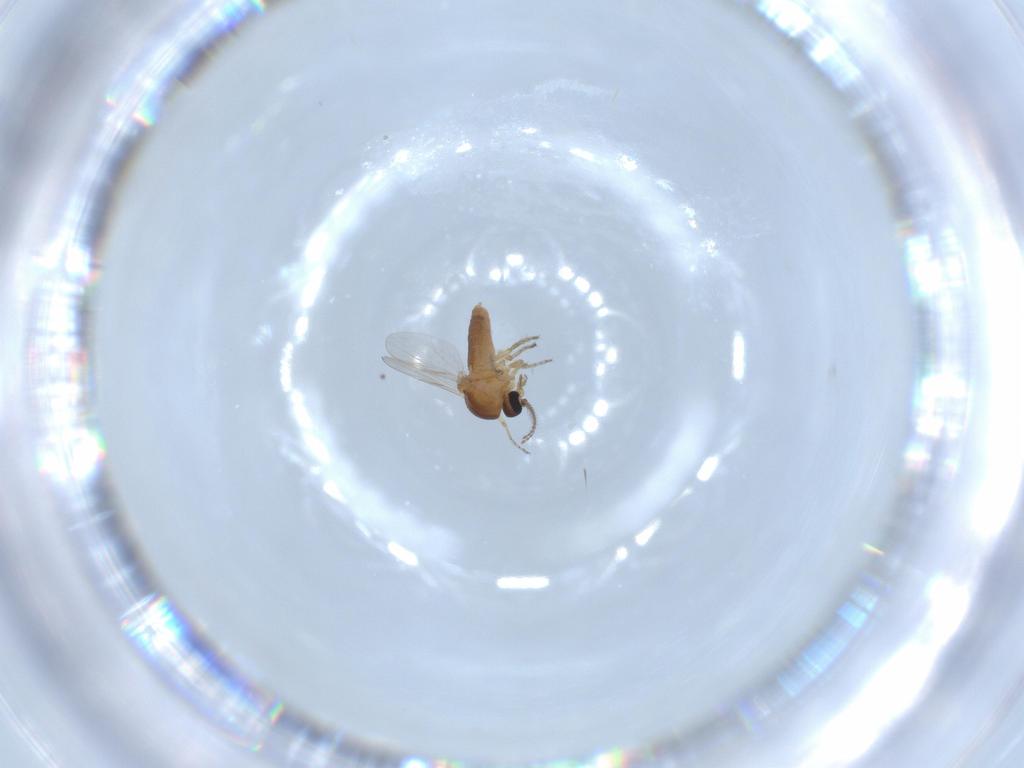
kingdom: Animalia
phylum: Arthropoda
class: Insecta
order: Diptera
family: Ceratopogonidae
